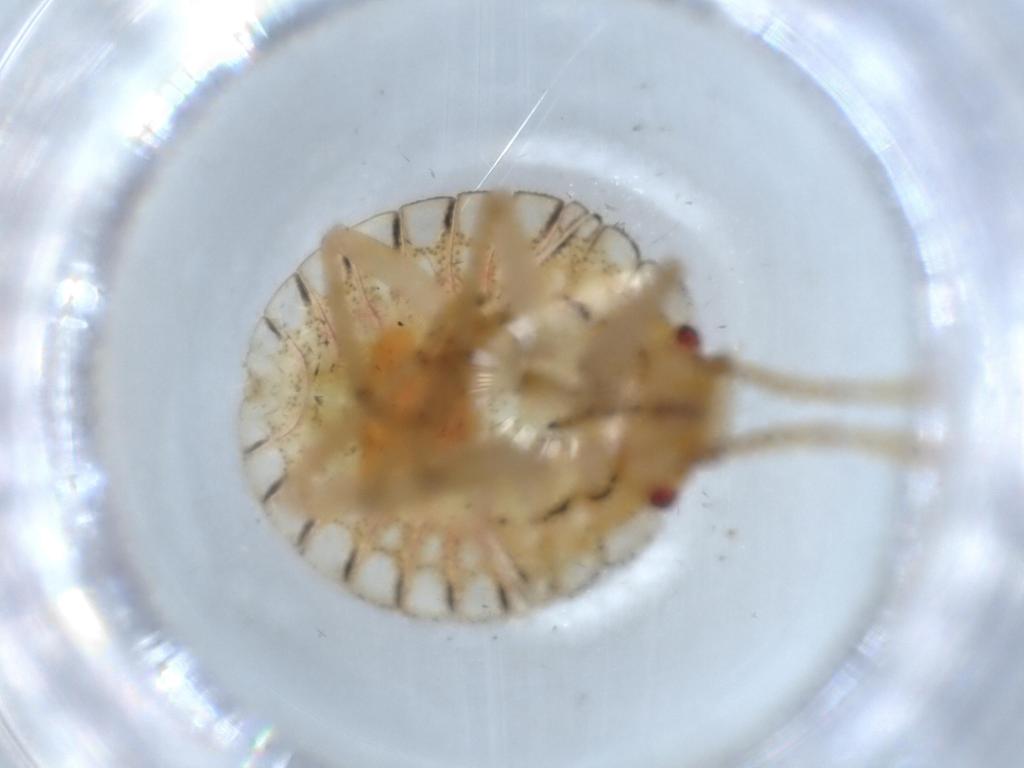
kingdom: Animalia
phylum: Arthropoda
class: Insecta
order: Hemiptera
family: Pentatomidae
